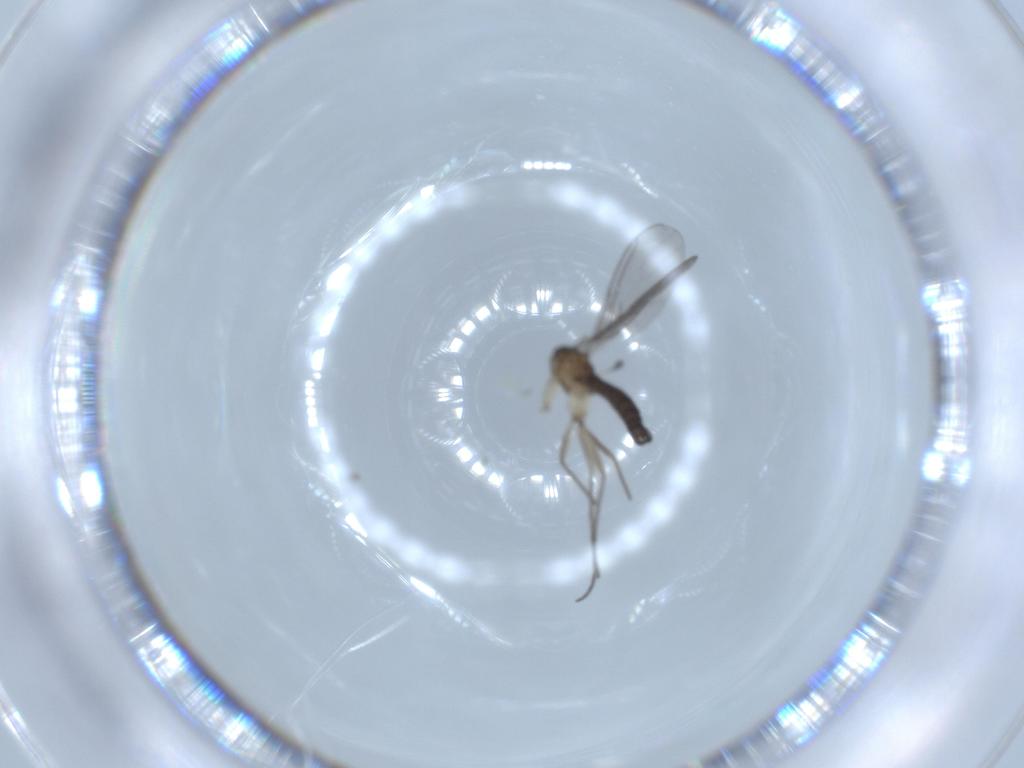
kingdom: Animalia
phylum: Arthropoda
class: Insecta
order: Diptera
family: Sciaridae
